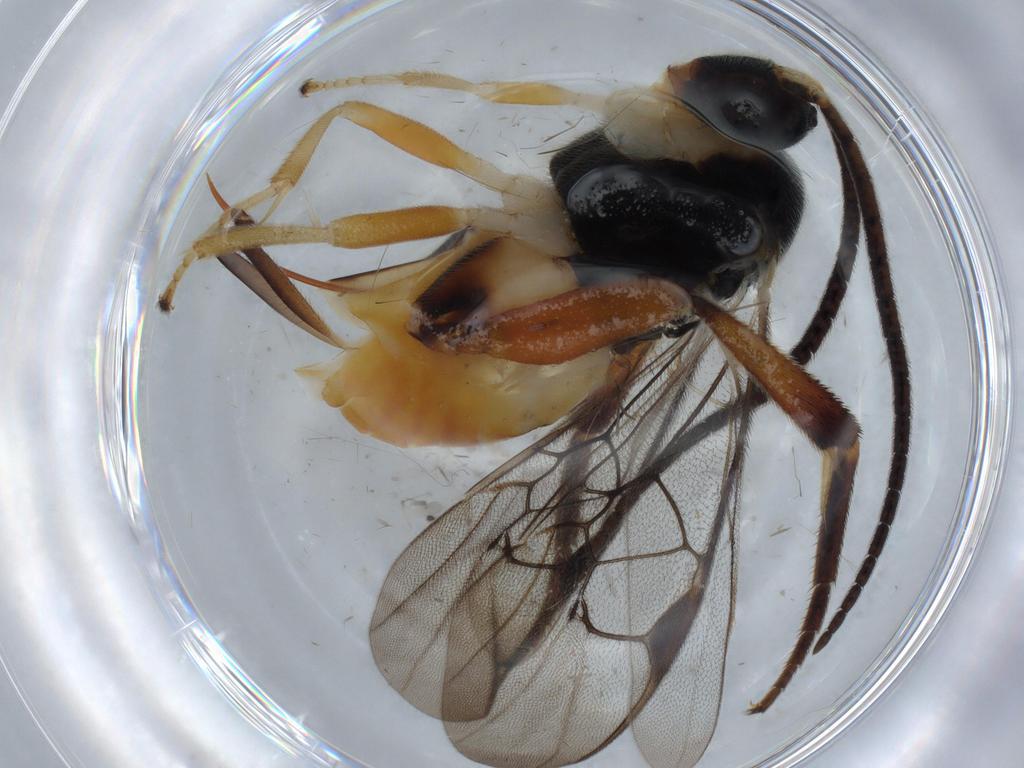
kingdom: Animalia
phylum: Arthropoda
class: Insecta
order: Hymenoptera
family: Braconidae
